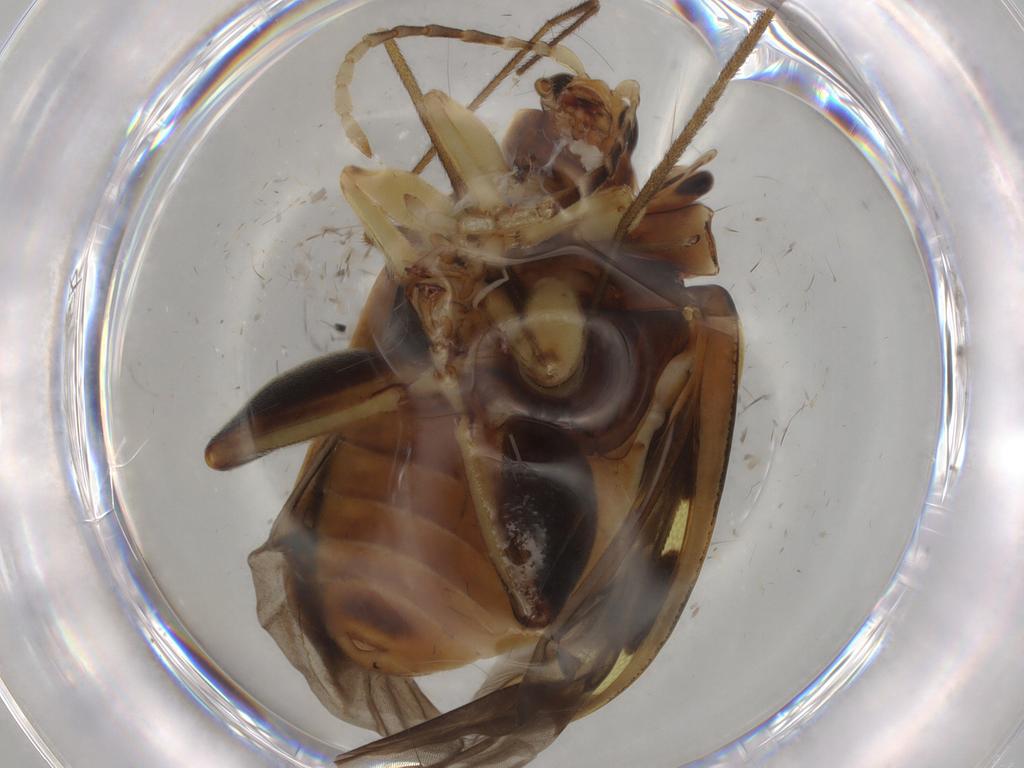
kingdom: Animalia
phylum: Arthropoda
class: Insecta
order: Coleoptera
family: Chrysomelidae
